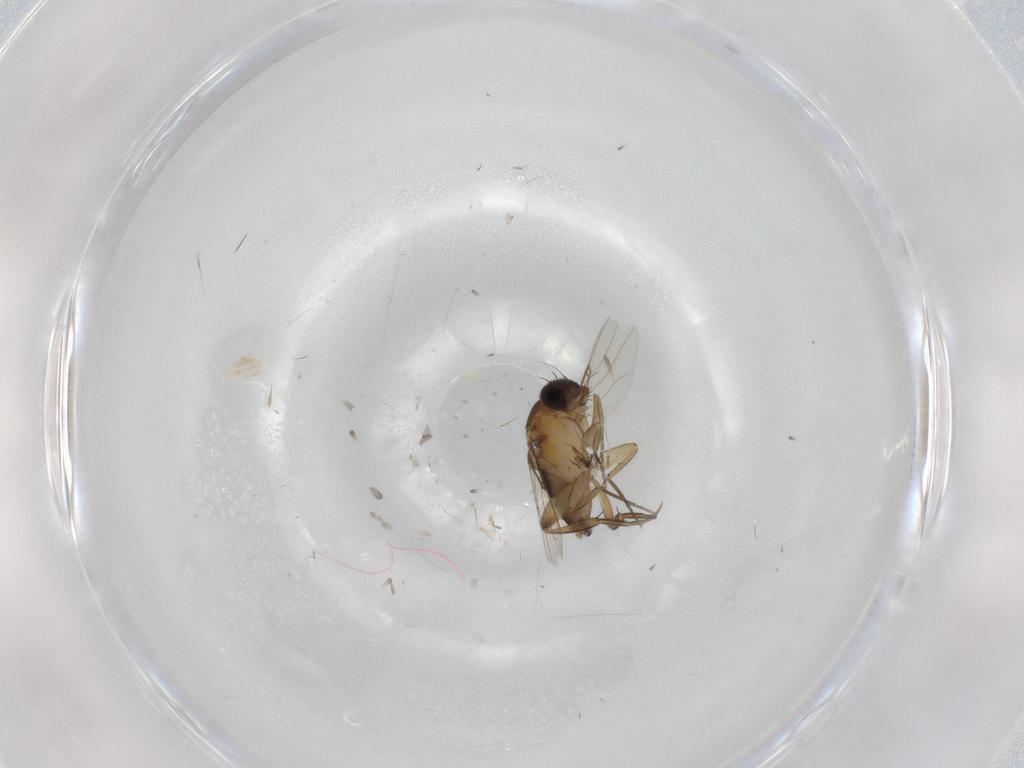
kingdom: Animalia
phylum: Arthropoda
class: Insecta
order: Diptera
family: Phoridae
